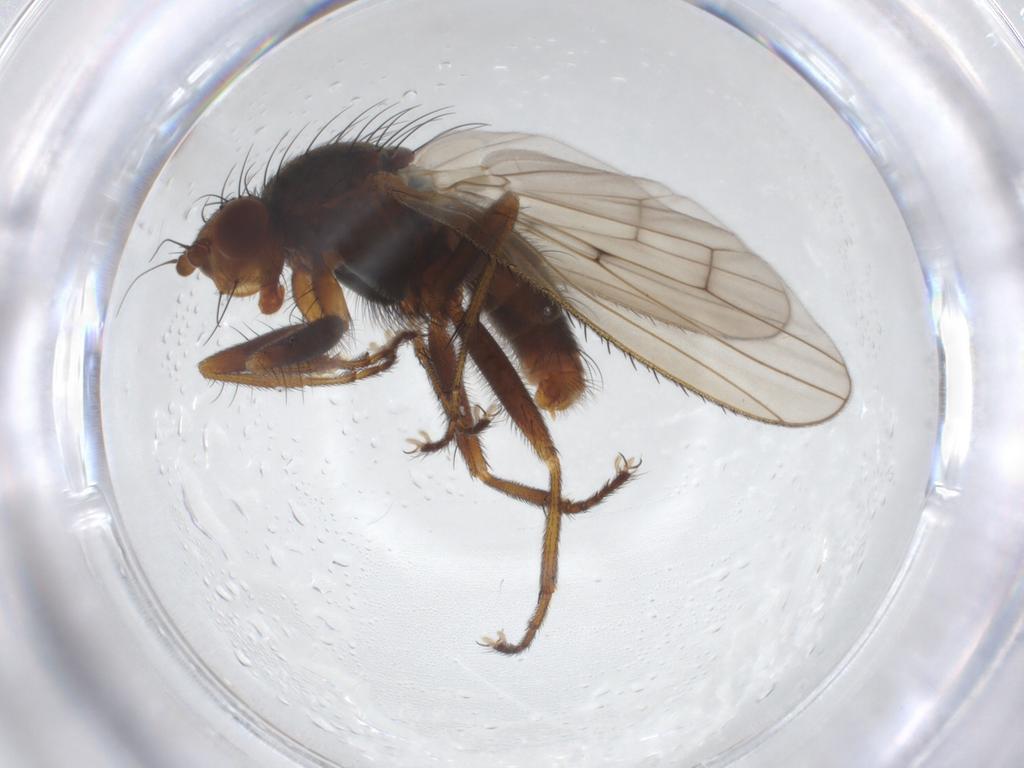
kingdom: Animalia
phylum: Arthropoda
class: Insecta
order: Diptera
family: Heleomyzidae
